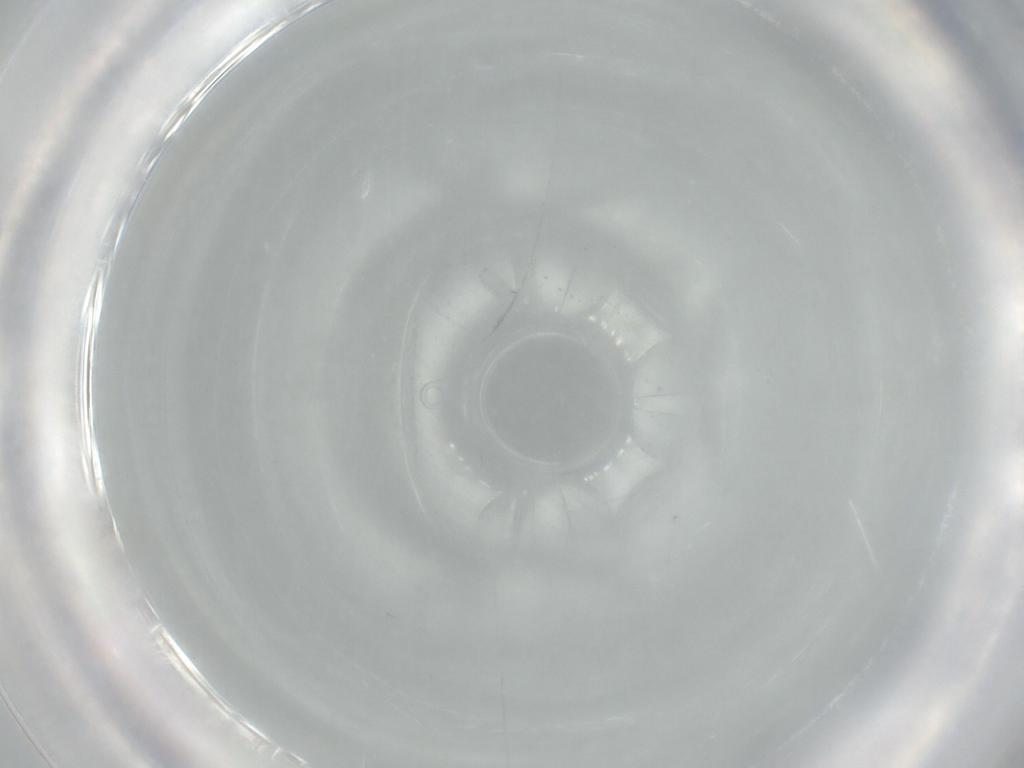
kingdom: Animalia
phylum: Arthropoda
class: Insecta
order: Hymenoptera
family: Eulophidae
